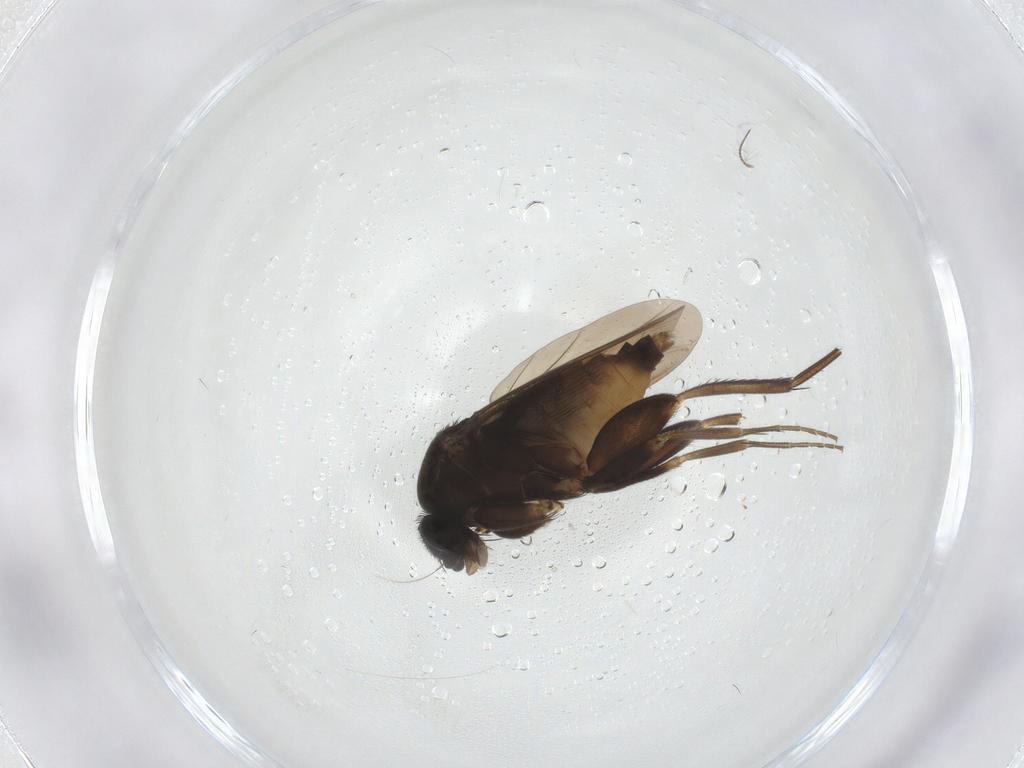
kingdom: Animalia
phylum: Arthropoda
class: Insecta
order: Diptera
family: Phoridae
